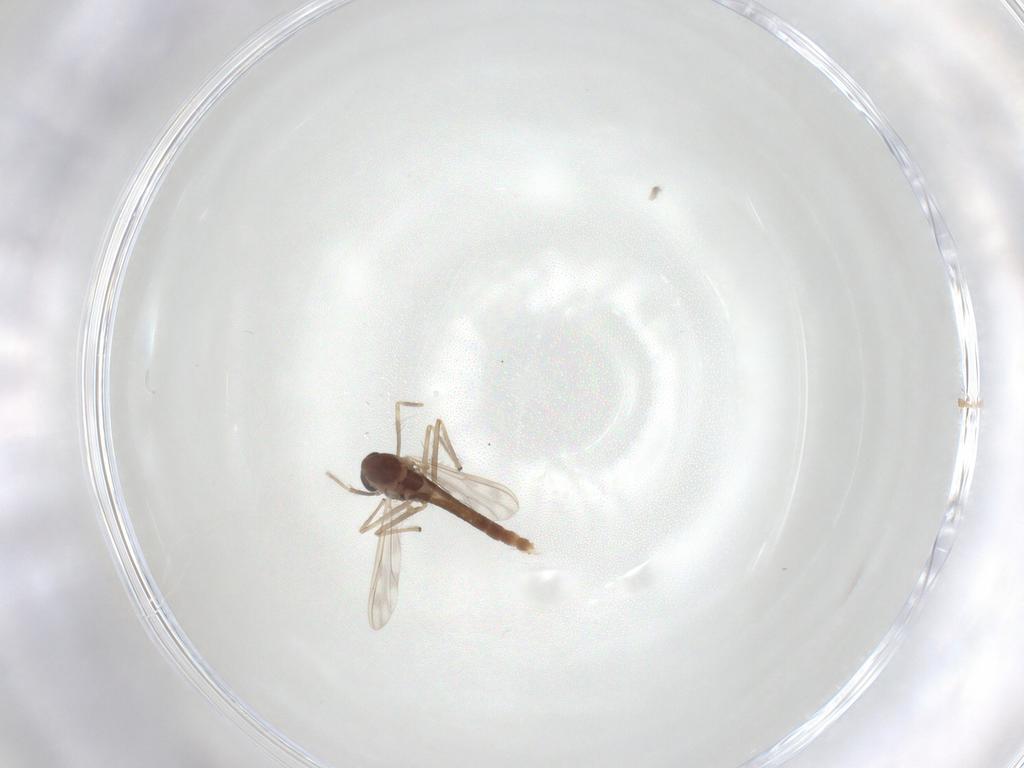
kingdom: Animalia
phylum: Arthropoda
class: Insecta
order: Diptera
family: Chironomidae
